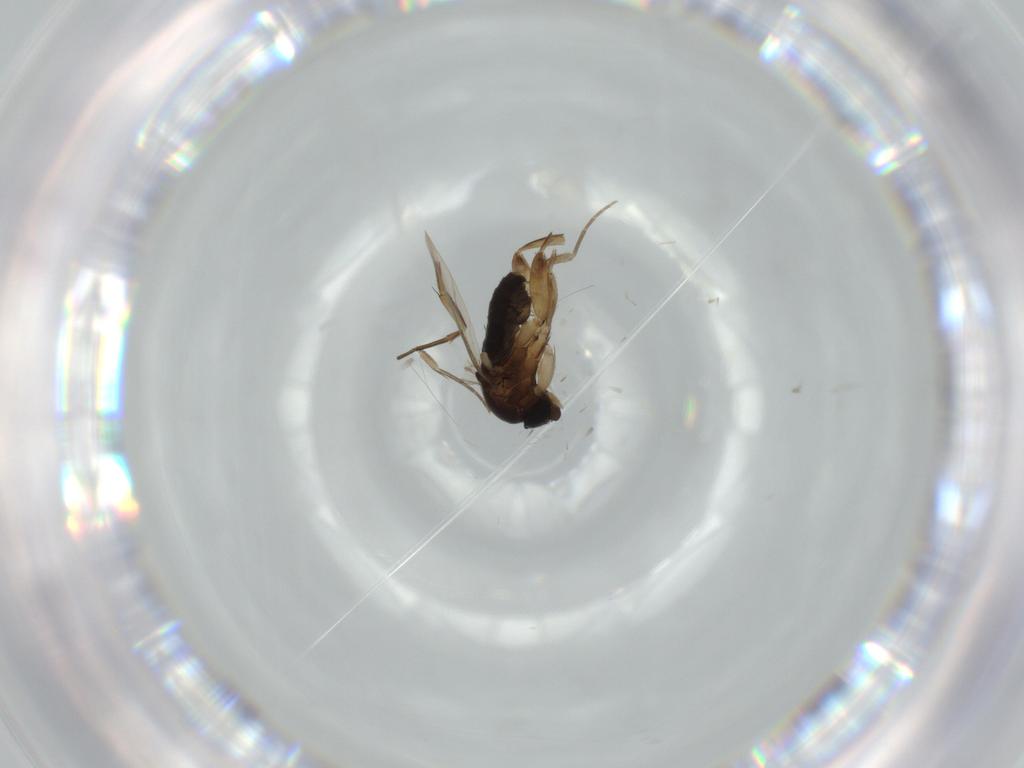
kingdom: Animalia
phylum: Arthropoda
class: Insecta
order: Diptera
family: Phoridae
